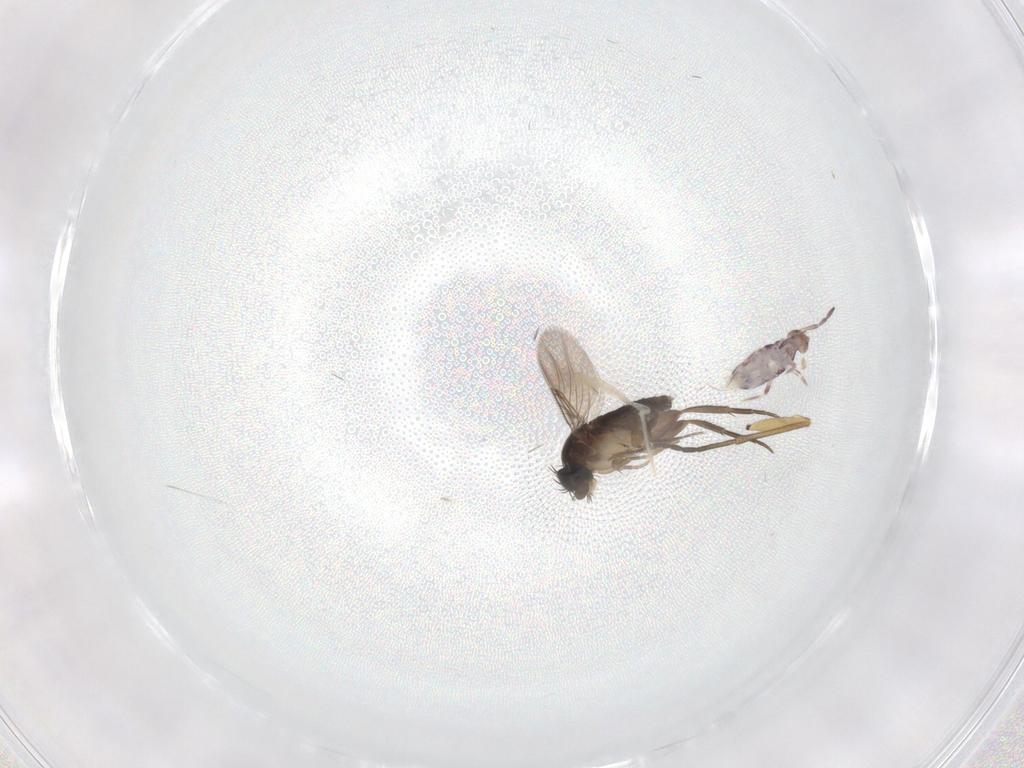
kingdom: Animalia
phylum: Arthropoda
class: Collembola
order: Entomobryomorpha
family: Entomobryidae
